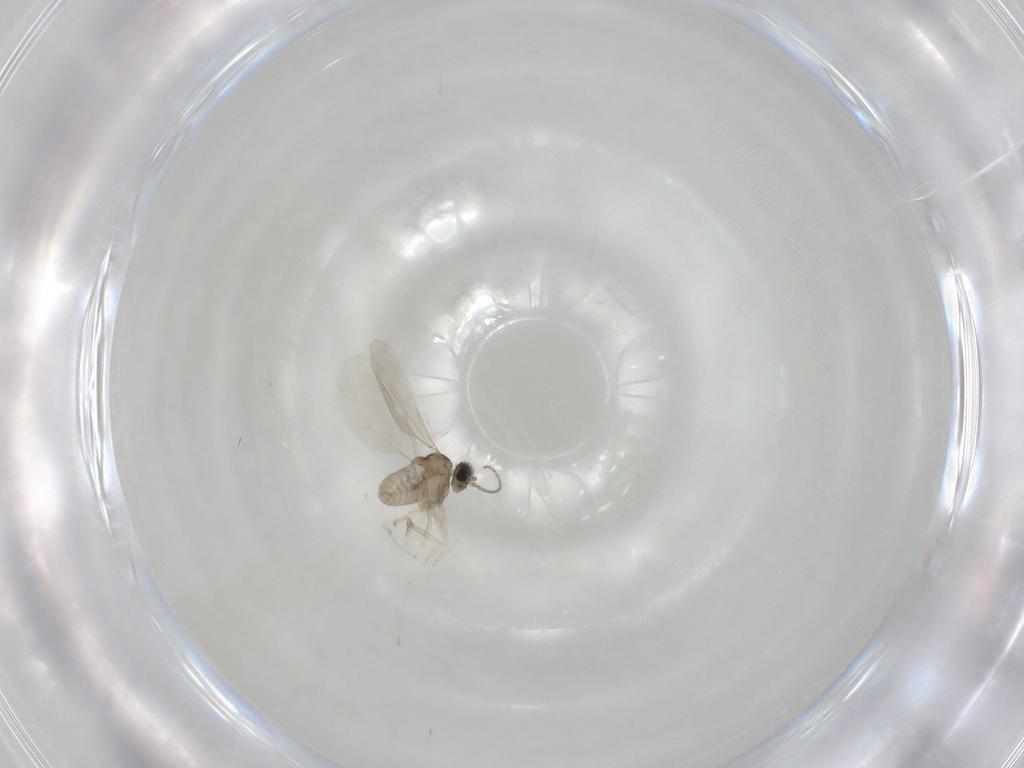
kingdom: Animalia
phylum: Arthropoda
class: Insecta
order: Diptera
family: Cecidomyiidae
